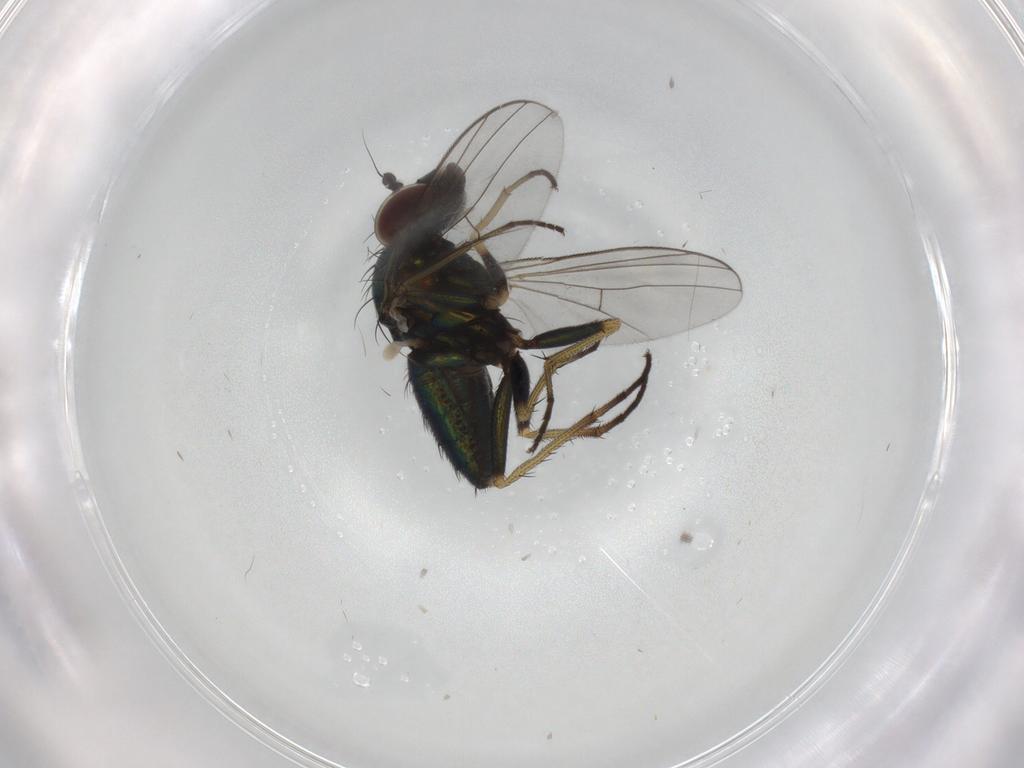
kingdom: Animalia
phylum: Arthropoda
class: Insecta
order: Diptera
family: Dolichopodidae
